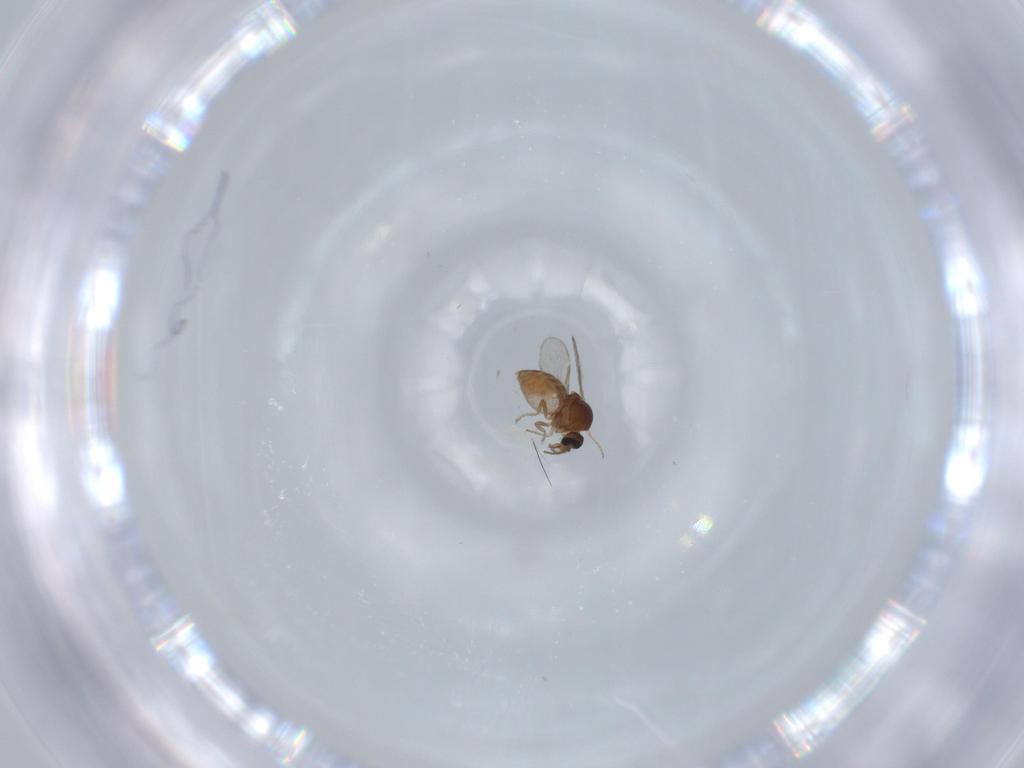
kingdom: Animalia
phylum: Arthropoda
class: Insecta
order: Diptera
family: Ceratopogonidae
